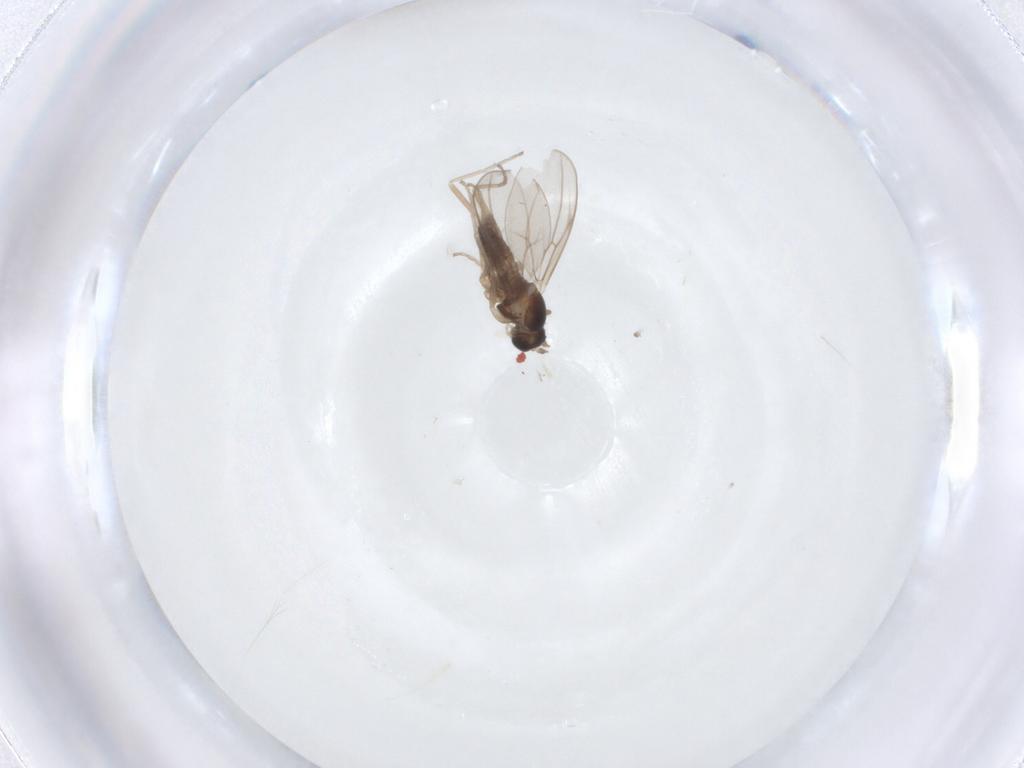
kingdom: Animalia
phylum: Arthropoda
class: Insecta
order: Diptera
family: Cecidomyiidae
